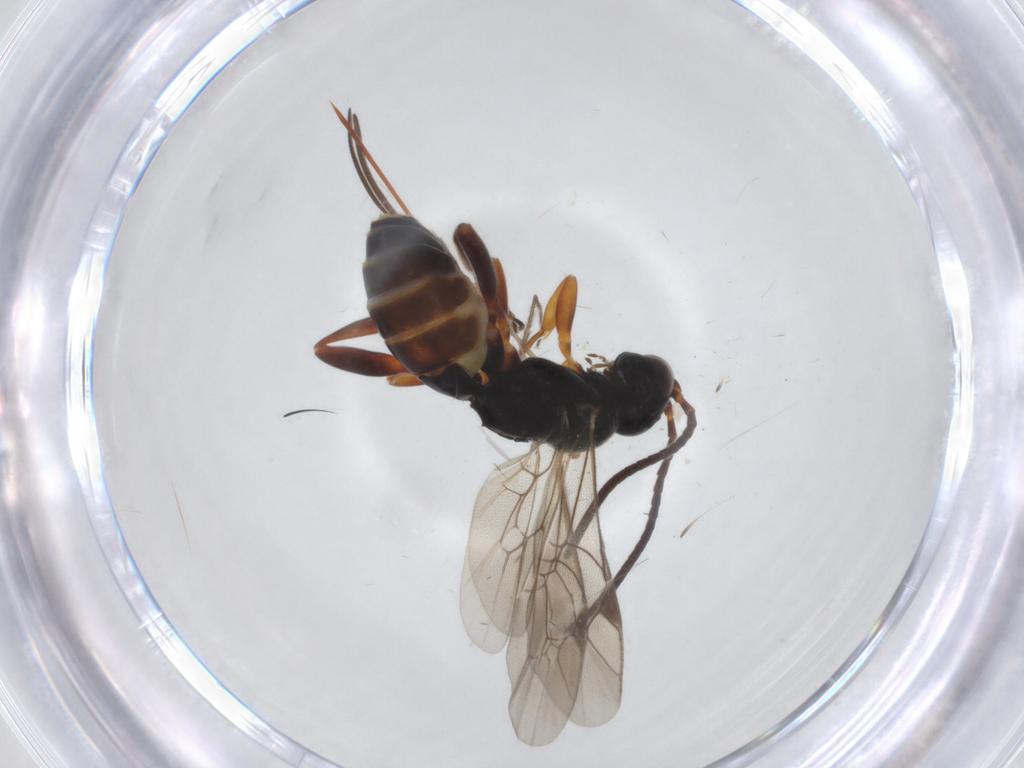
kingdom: Animalia
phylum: Arthropoda
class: Insecta
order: Hymenoptera
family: Ichneumonidae
